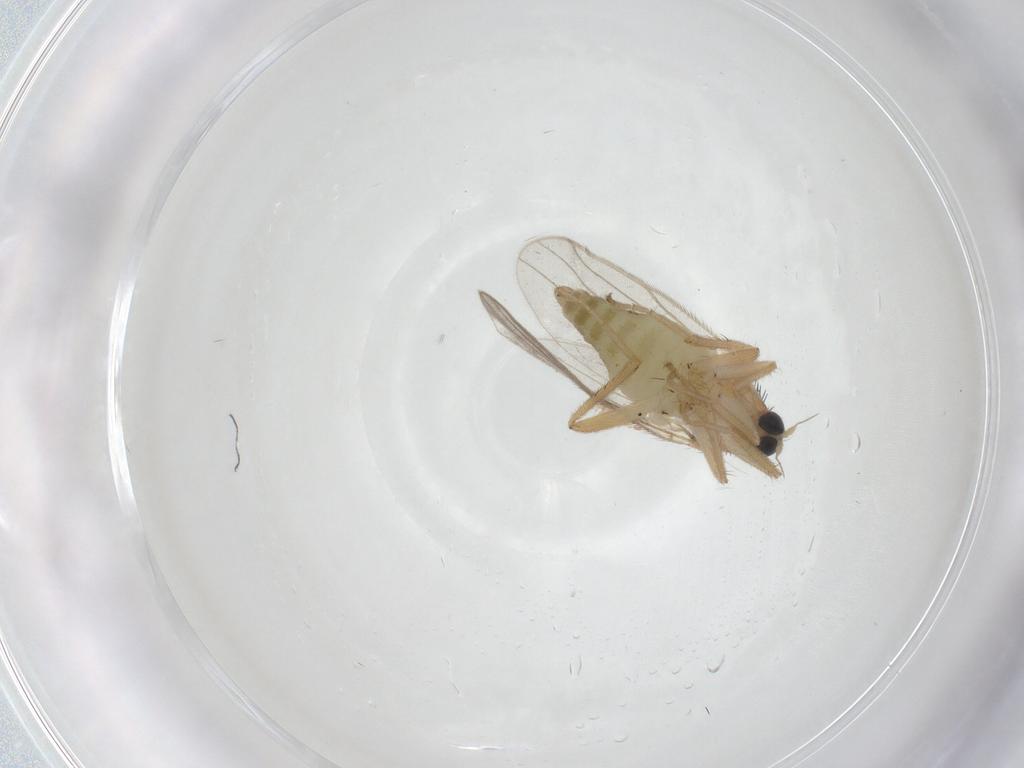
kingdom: Animalia
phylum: Arthropoda
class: Insecta
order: Diptera
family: Hybotidae
